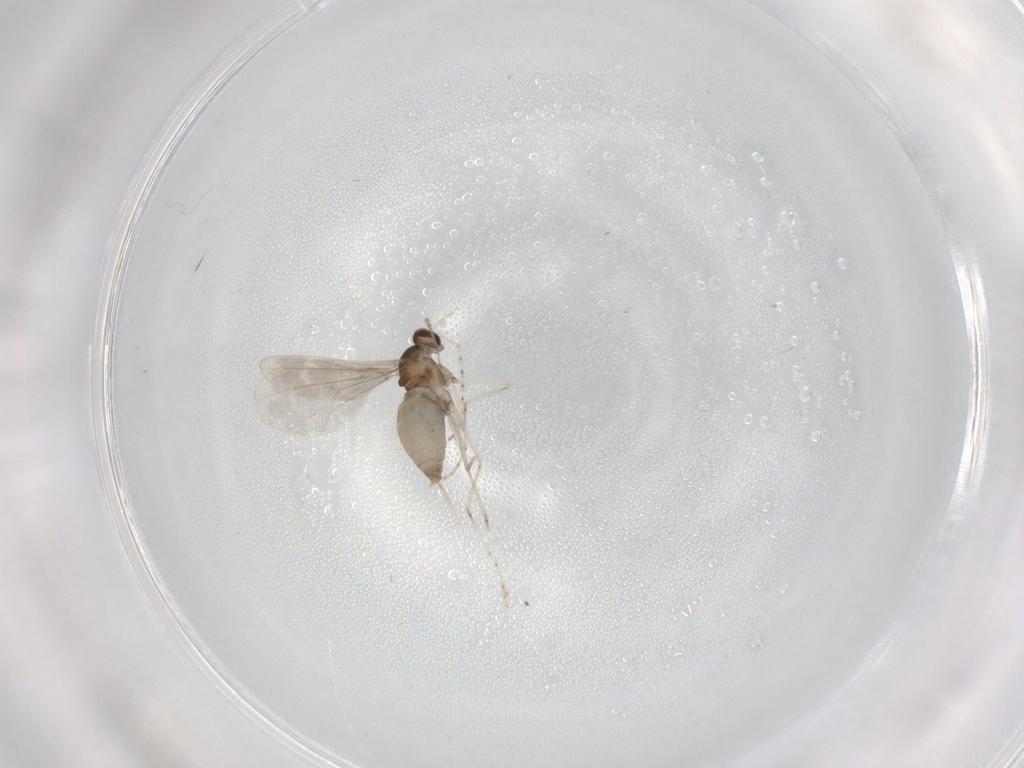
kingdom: Animalia
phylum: Arthropoda
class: Insecta
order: Diptera
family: Cecidomyiidae
